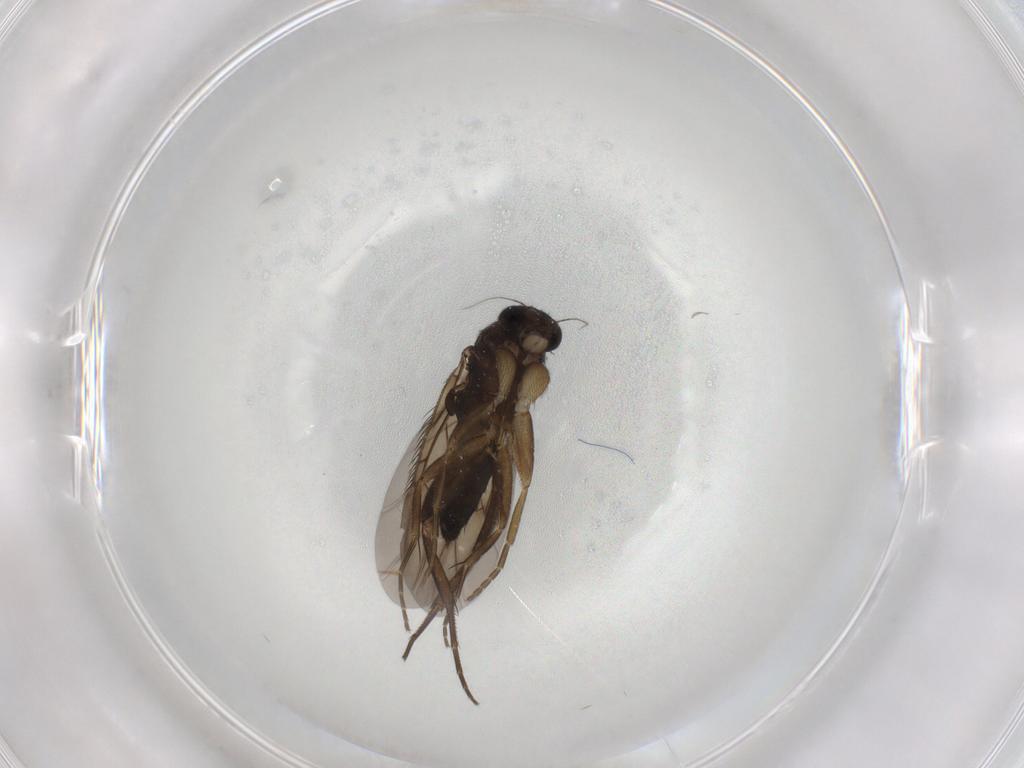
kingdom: Animalia
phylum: Arthropoda
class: Insecta
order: Diptera
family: Phoridae
